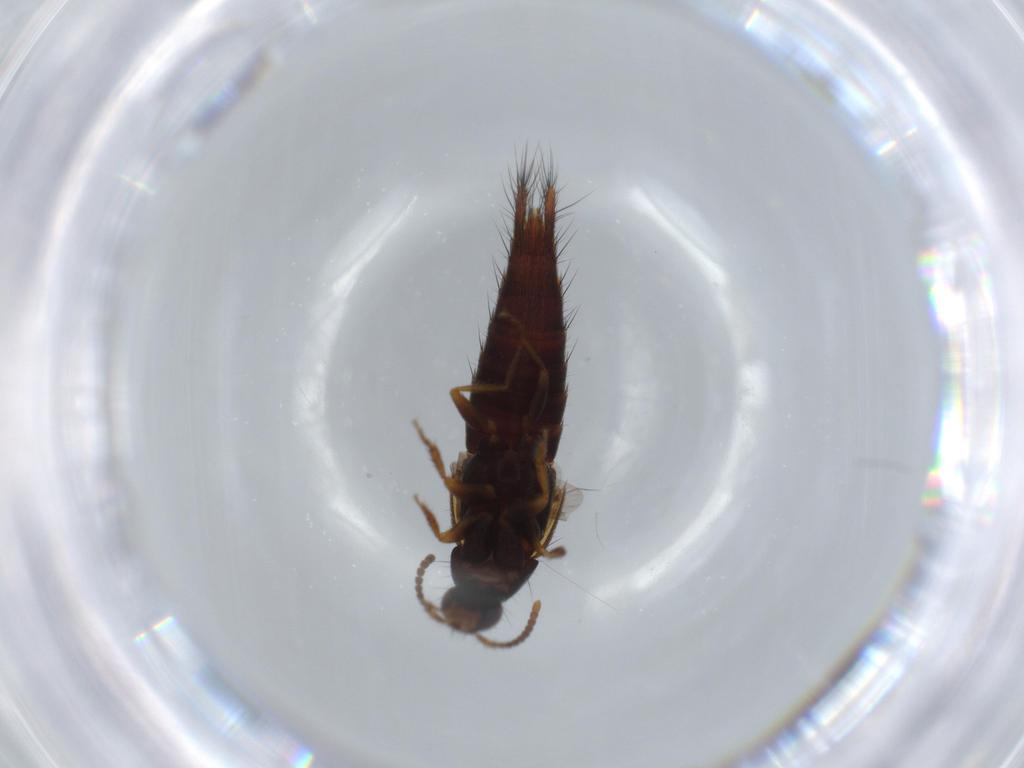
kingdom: Animalia
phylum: Arthropoda
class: Insecta
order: Coleoptera
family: Staphylinidae
